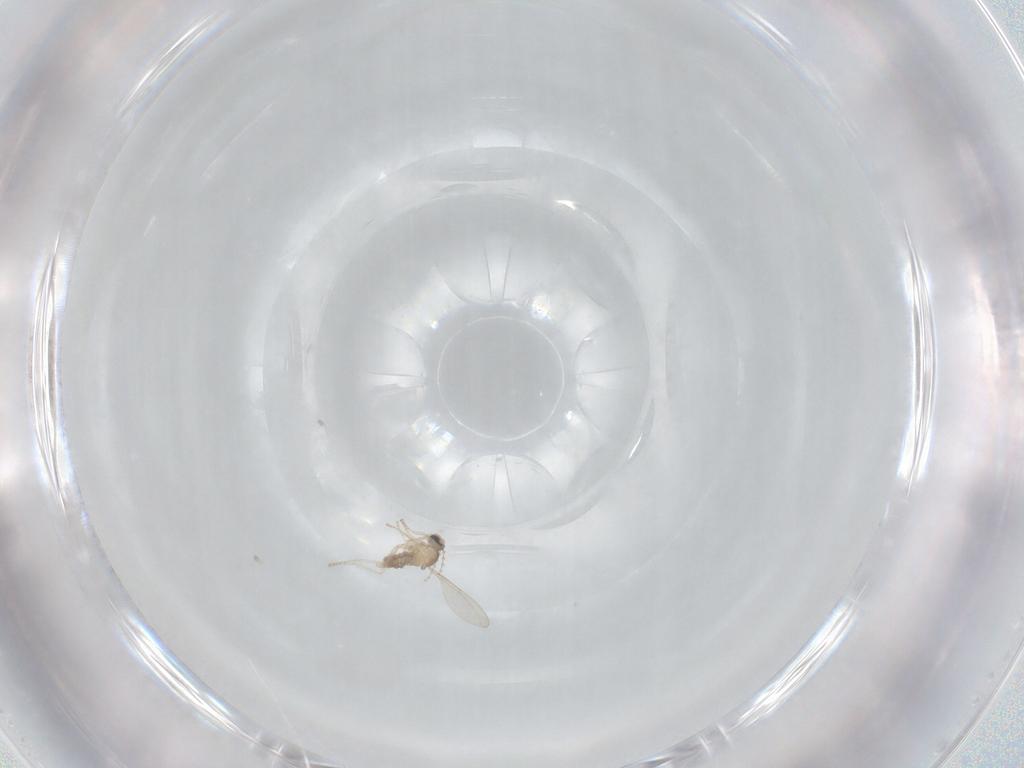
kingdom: Animalia
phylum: Arthropoda
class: Insecta
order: Diptera
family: Cecidomyiidae
